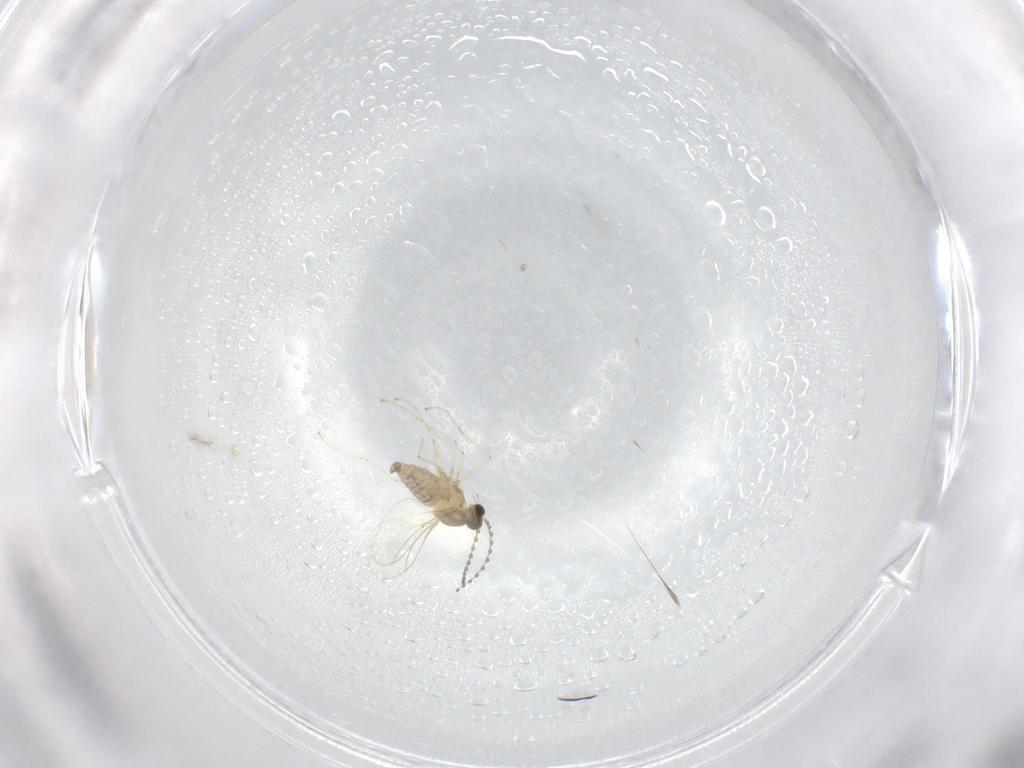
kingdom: Animalia
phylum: Arthropoda
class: Insecta
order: Diptera
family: Cecidomyiidae
